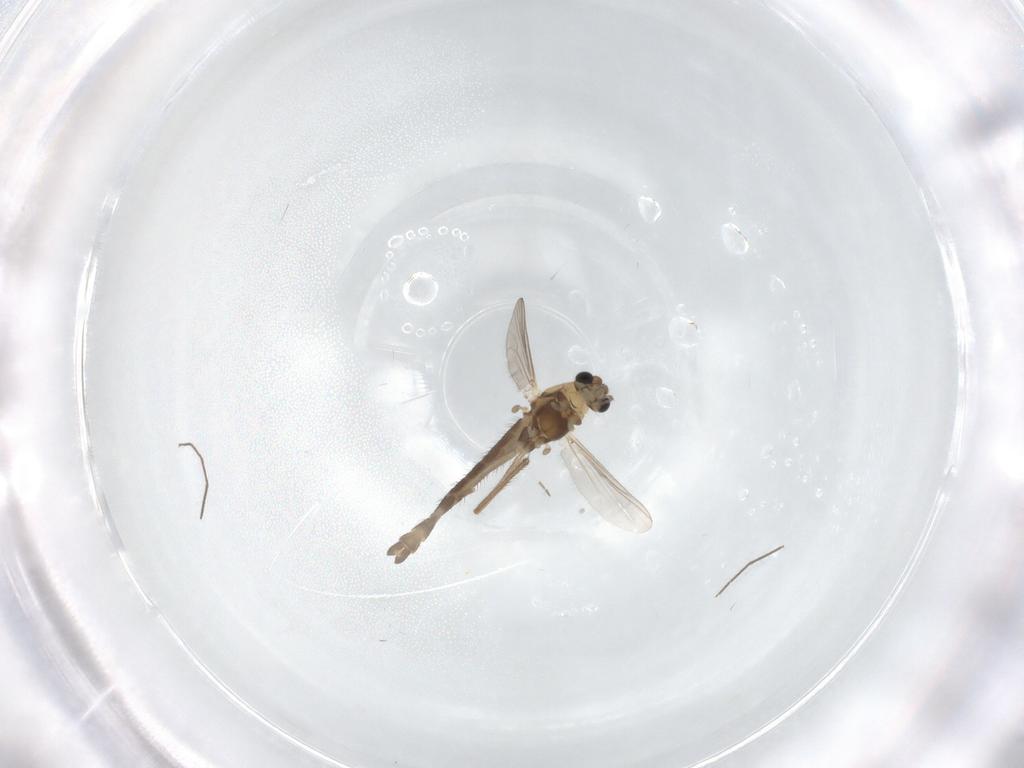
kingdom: Animalia
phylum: Arthropoda
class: Insecta
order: Diptera
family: Chironomidae
